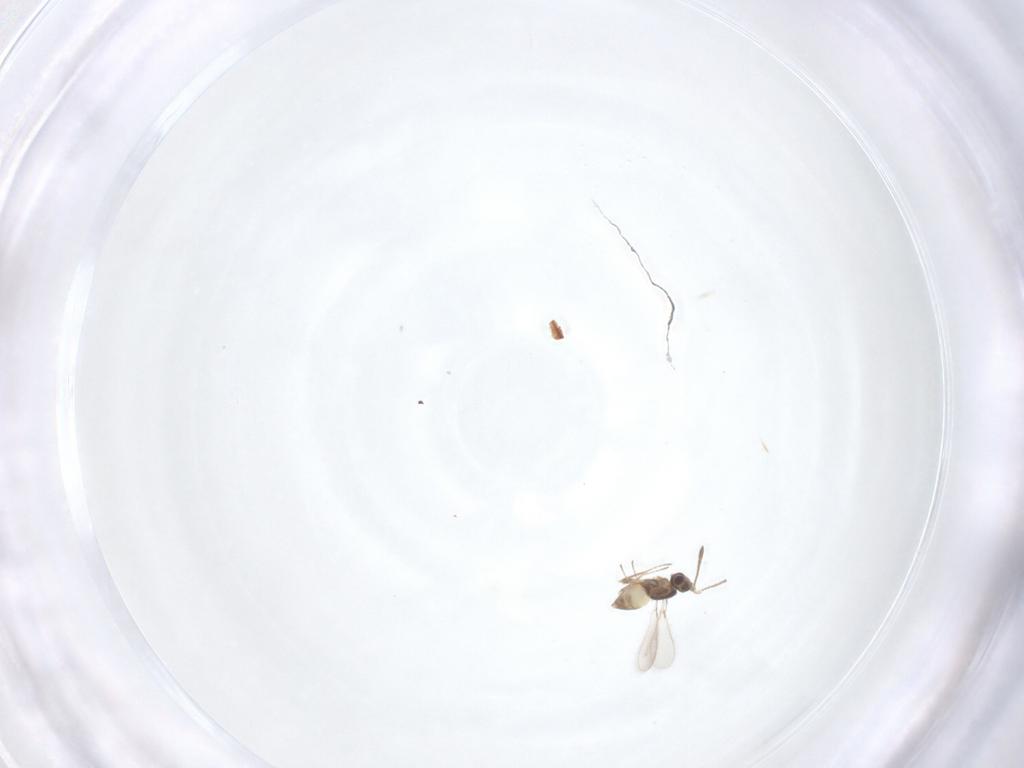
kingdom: Animalia
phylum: Arthropoda
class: Insecta
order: Hymenoptera
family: Mymaridae
